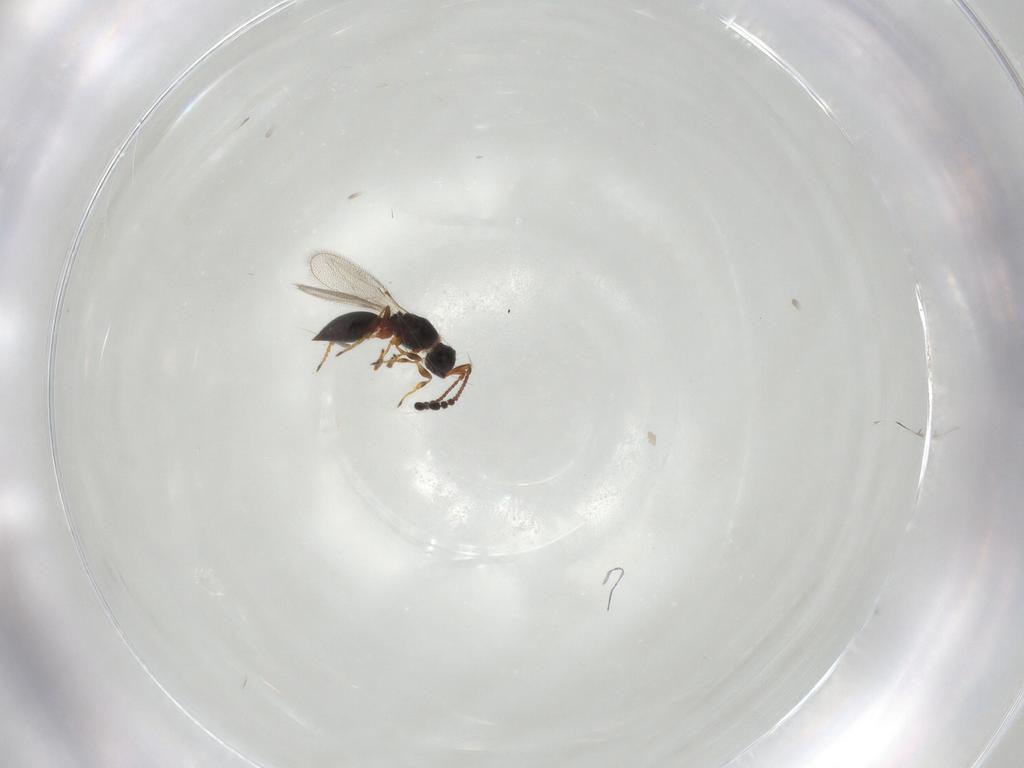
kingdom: Animalia
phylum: Arthropoda
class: Insecta
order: Hymenoptera
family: Diapriidae
